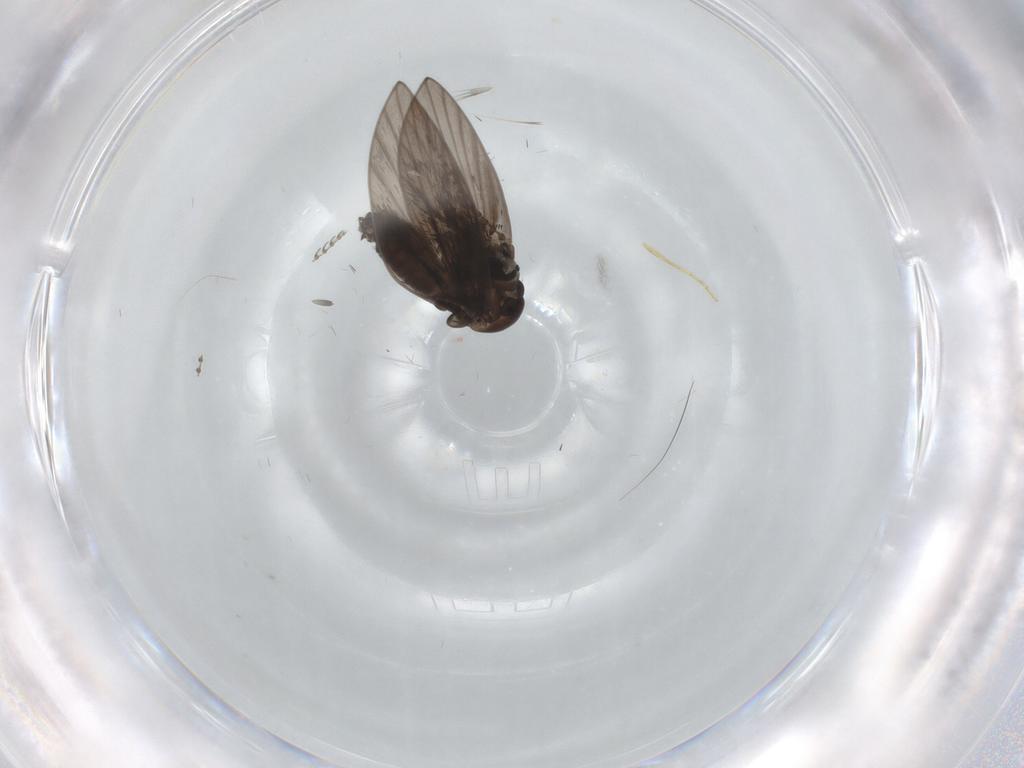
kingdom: Animalia
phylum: Arthropoda
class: Insecta
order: Diptera
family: Psychodidae
